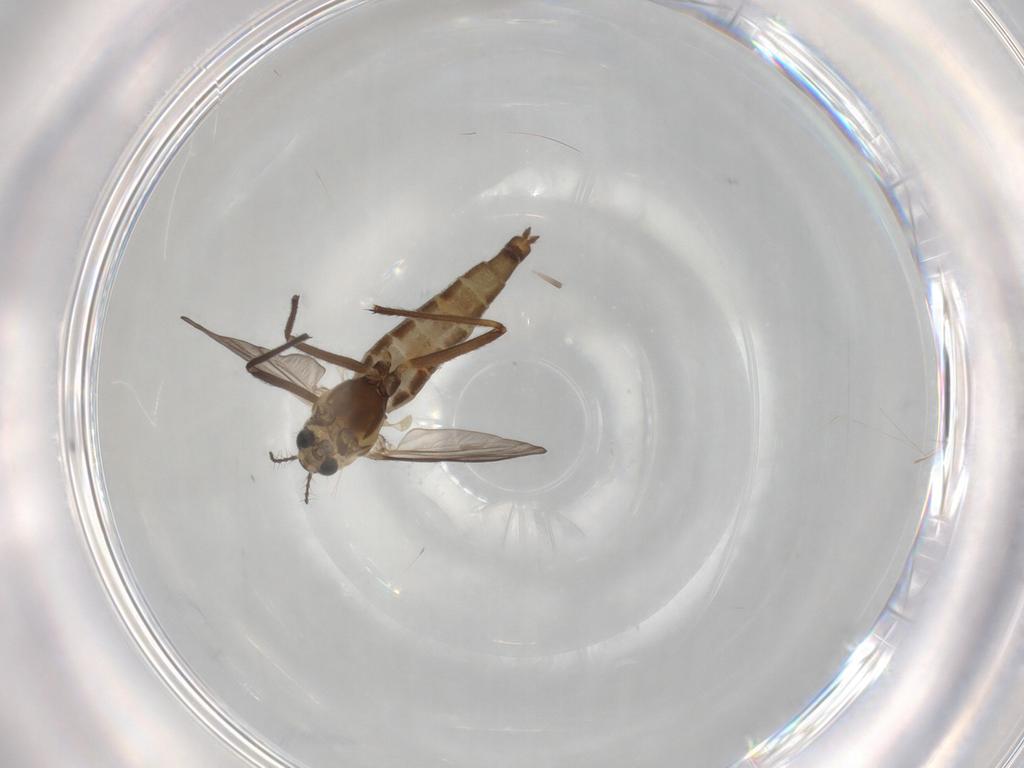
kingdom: Animalia
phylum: Arthropoda
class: Insecta
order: Diptera
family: Chironomidae
